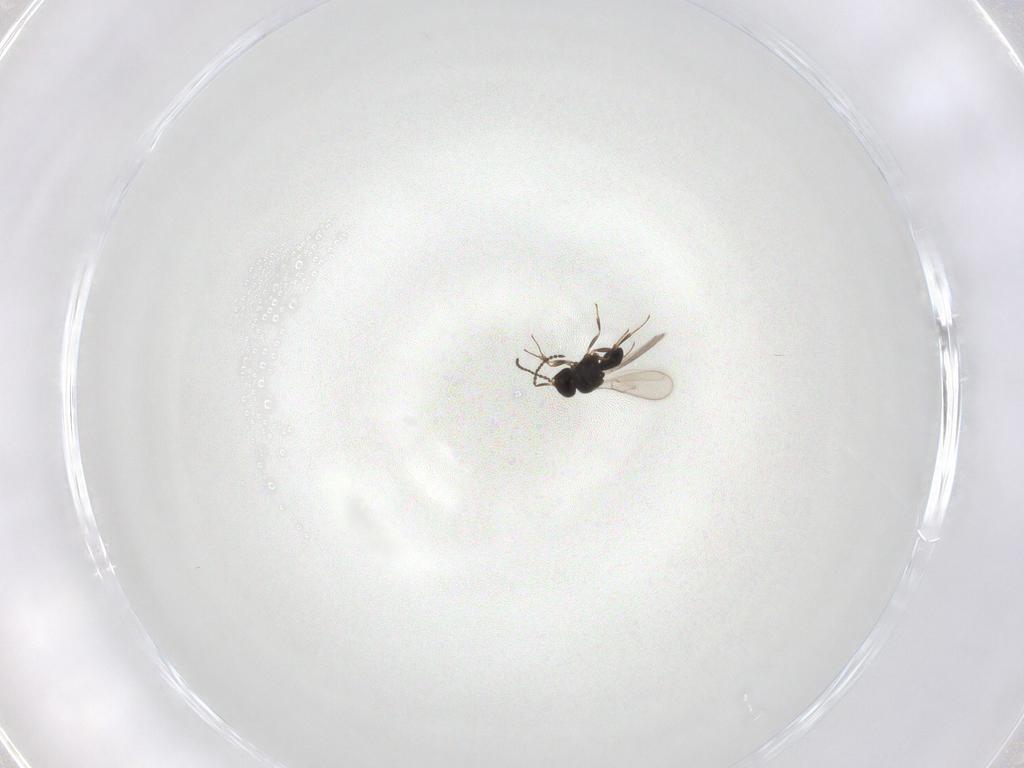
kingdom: Animalia
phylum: Arthropoda
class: Insecta
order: Hymenoptera
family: Scelionidae
